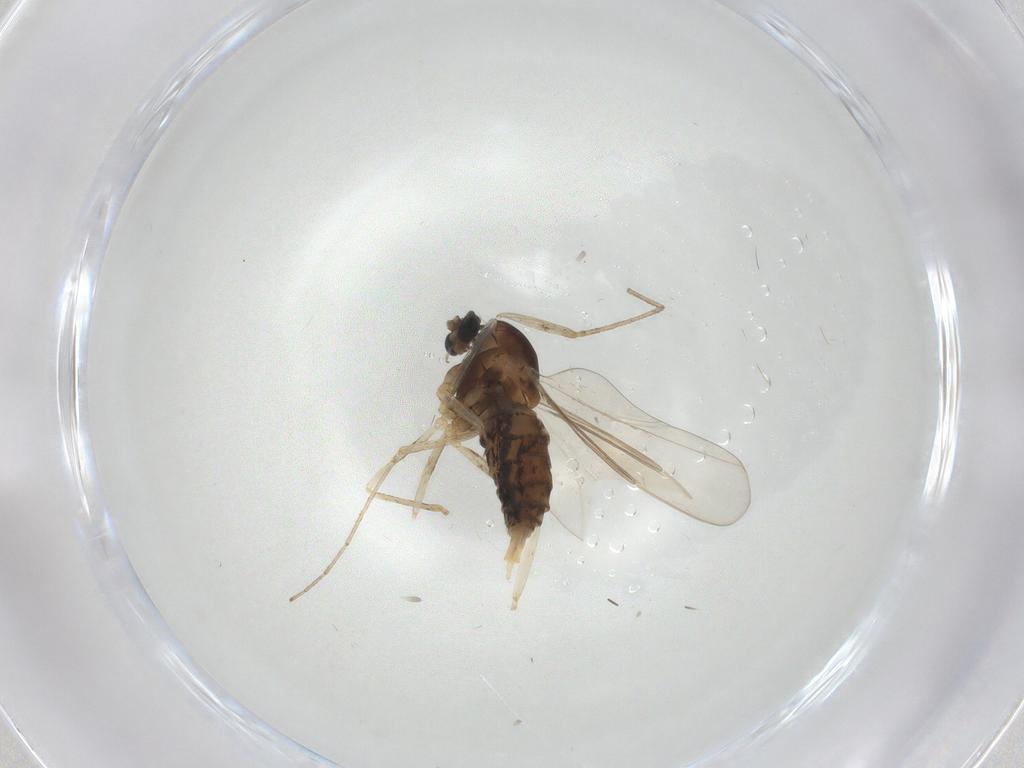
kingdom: Animalia
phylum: Arthropoda
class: Insecta
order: Diptera
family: Cecidomyiidae
